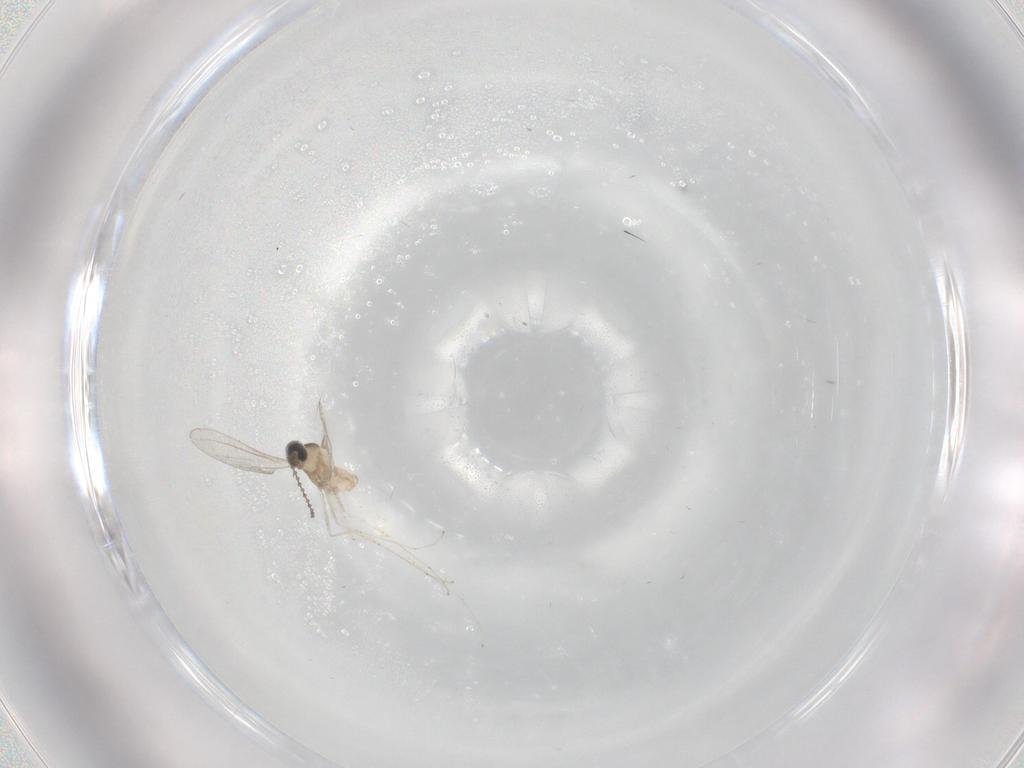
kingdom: Animalia
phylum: Arthropoda
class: Insecta
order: Diptera
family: Cecidomyiidae
